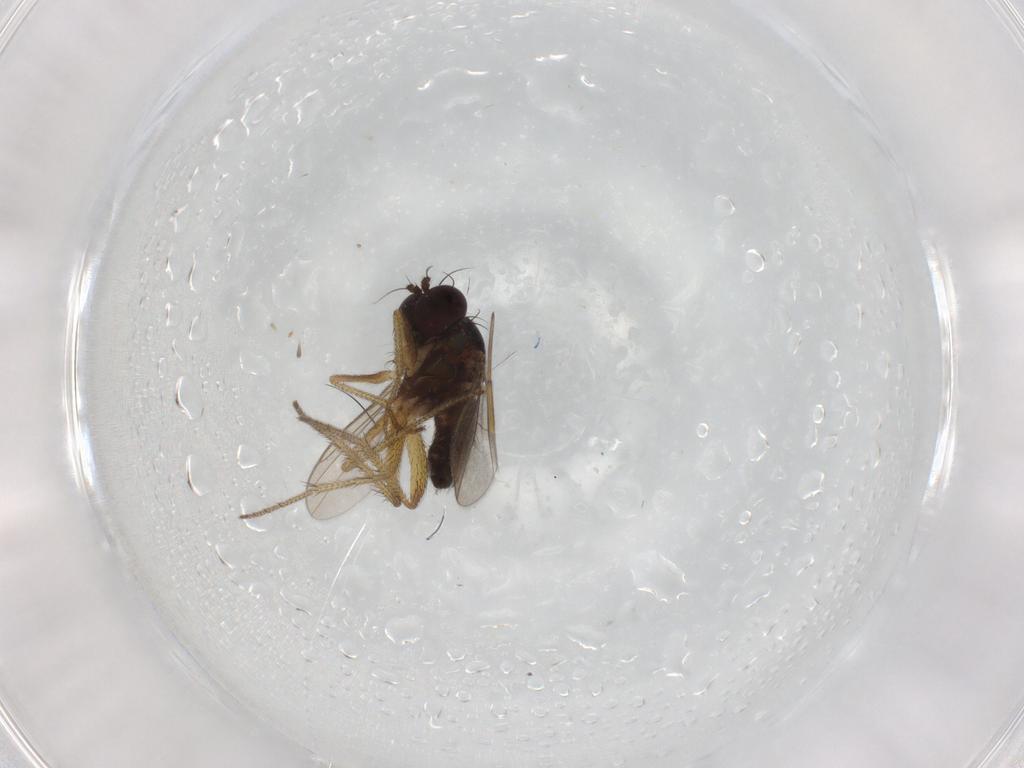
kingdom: Animalia
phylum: Arthropoda
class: Insecta
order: Diptera
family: Dolichopodidae
